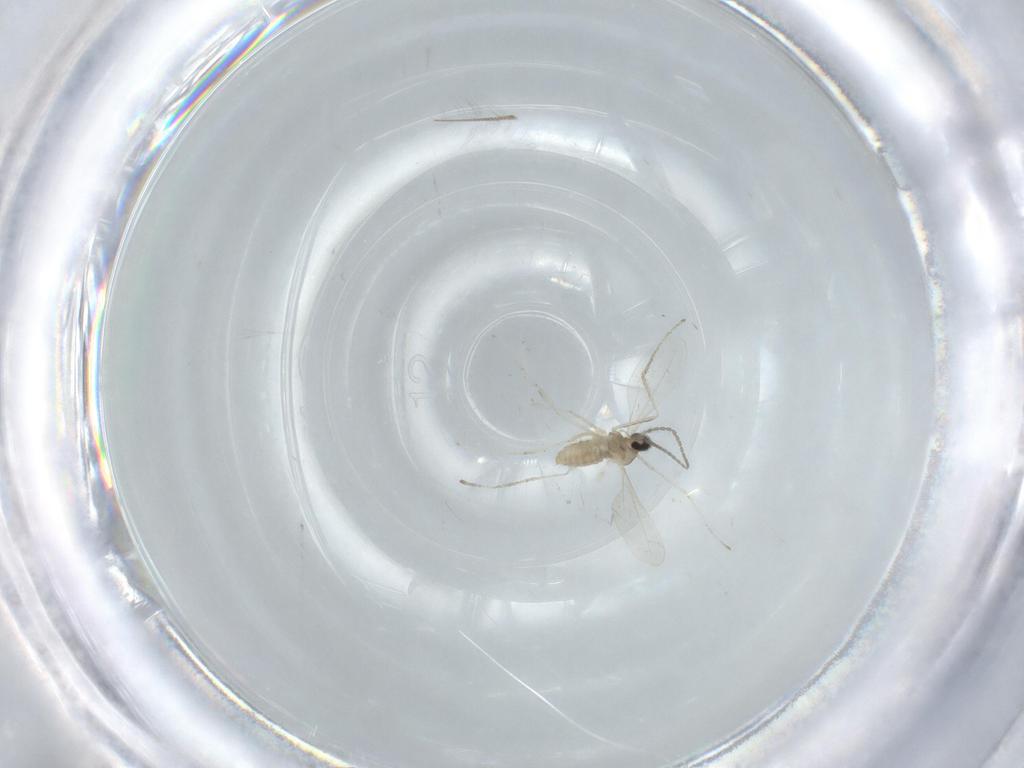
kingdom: Animalia
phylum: Arthropoda
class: Insecta
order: Diptera
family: Cecidomyiidae
